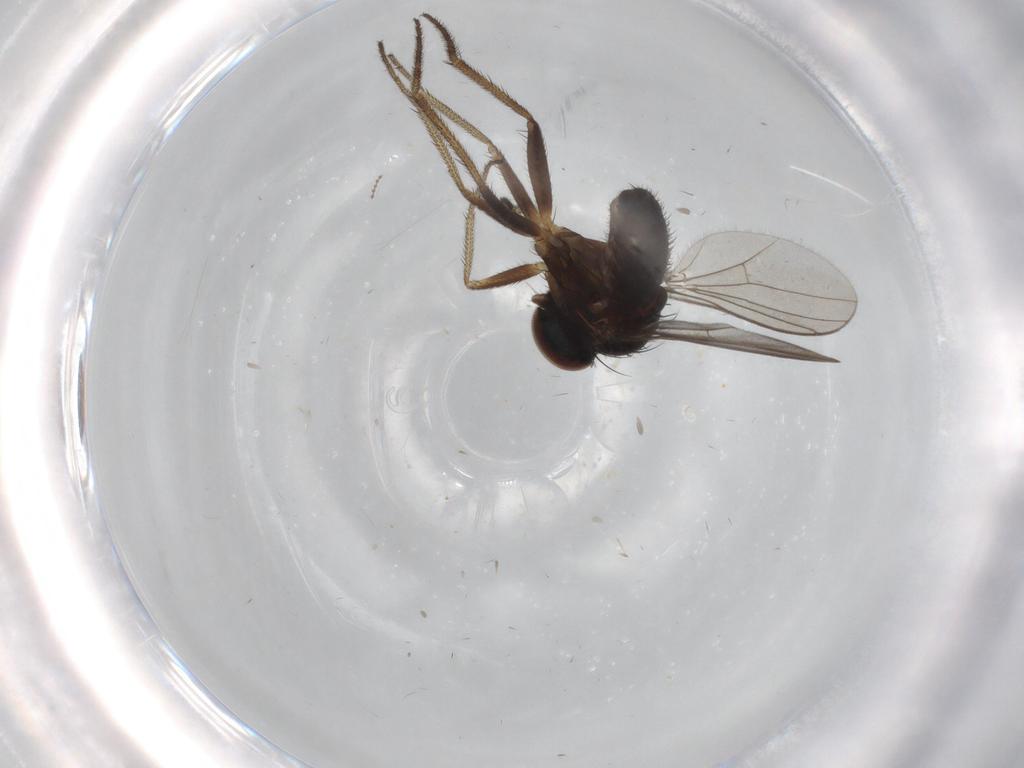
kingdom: Animalia
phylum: Arthropoda
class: Insecta
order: Diptera
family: Dolichopodidae
